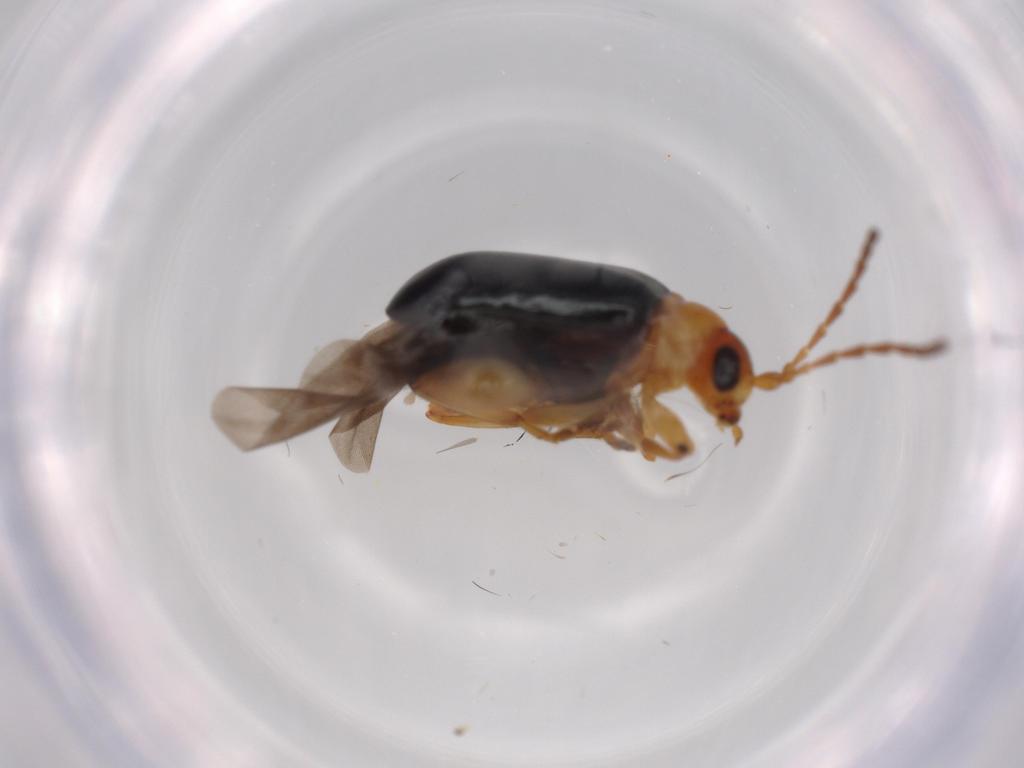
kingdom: Animalia
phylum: Arthropoda
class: Insecta
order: Coleoptera
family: Chrysomelidae
